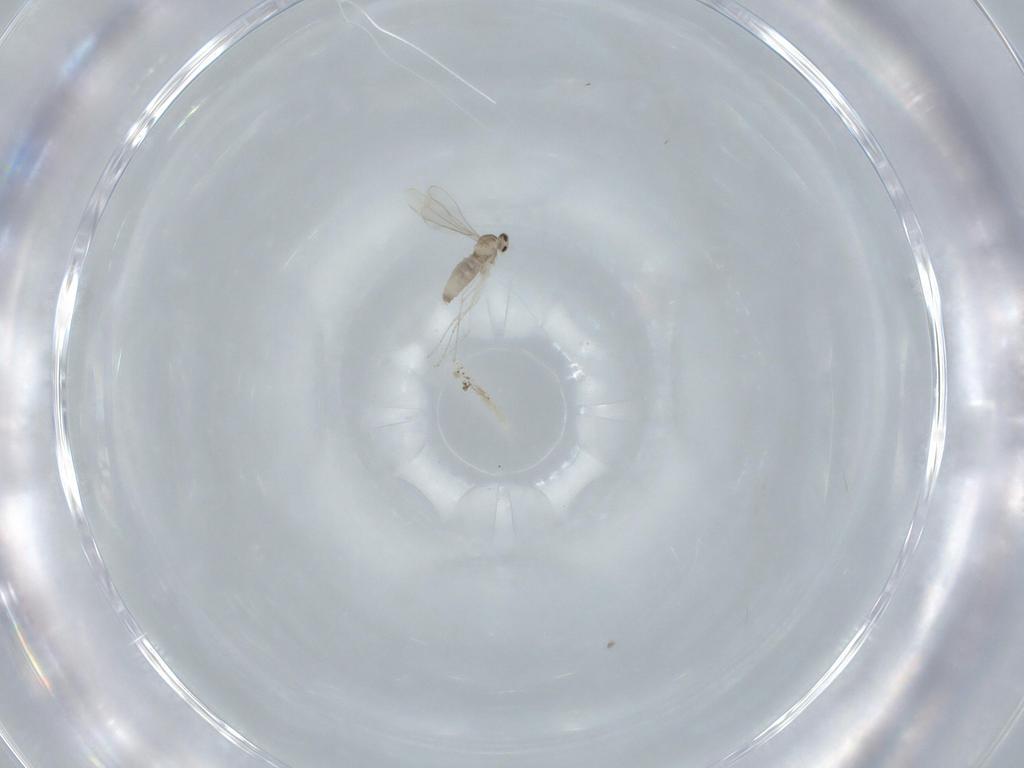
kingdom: Animalia
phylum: Arthropoda
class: Insecta
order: Diptera
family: Cecidomyiidae
